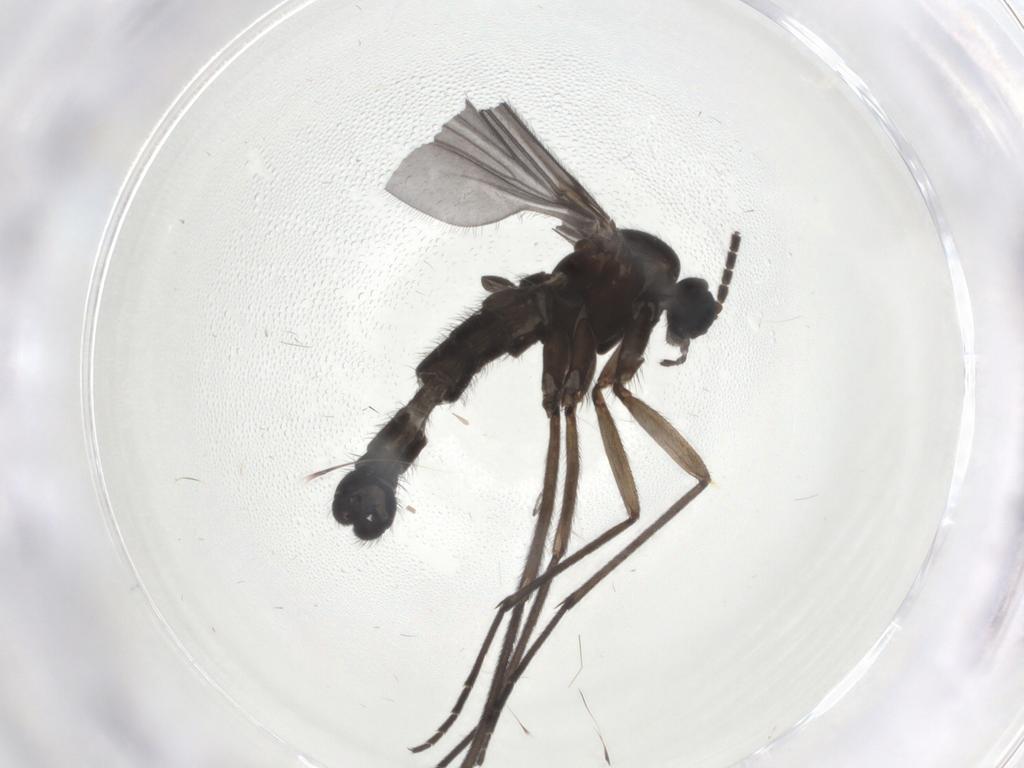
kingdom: Animalia
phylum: Arthropoda
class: Insecta
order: Diptera
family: Sciaridae
